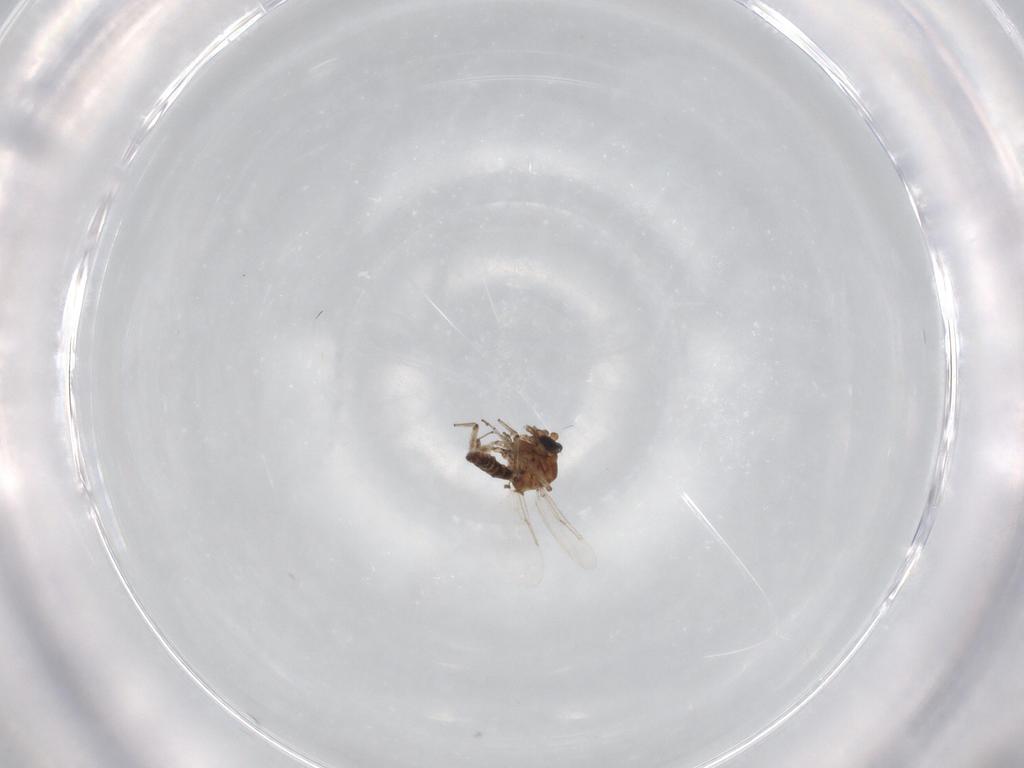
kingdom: Animalia
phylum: Arthropoda
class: Insecta
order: Diptera
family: Ceratopogonidae
